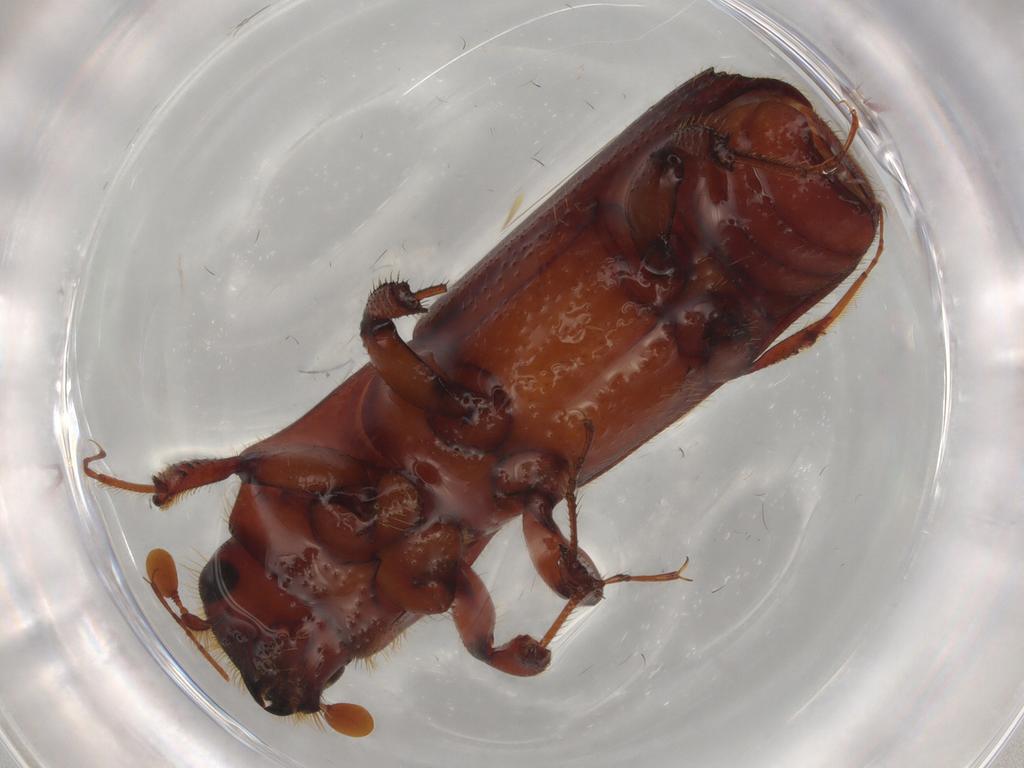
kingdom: Animalia
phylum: Arthropoda
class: Insecta
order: Coleoptera
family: Curculionidae
